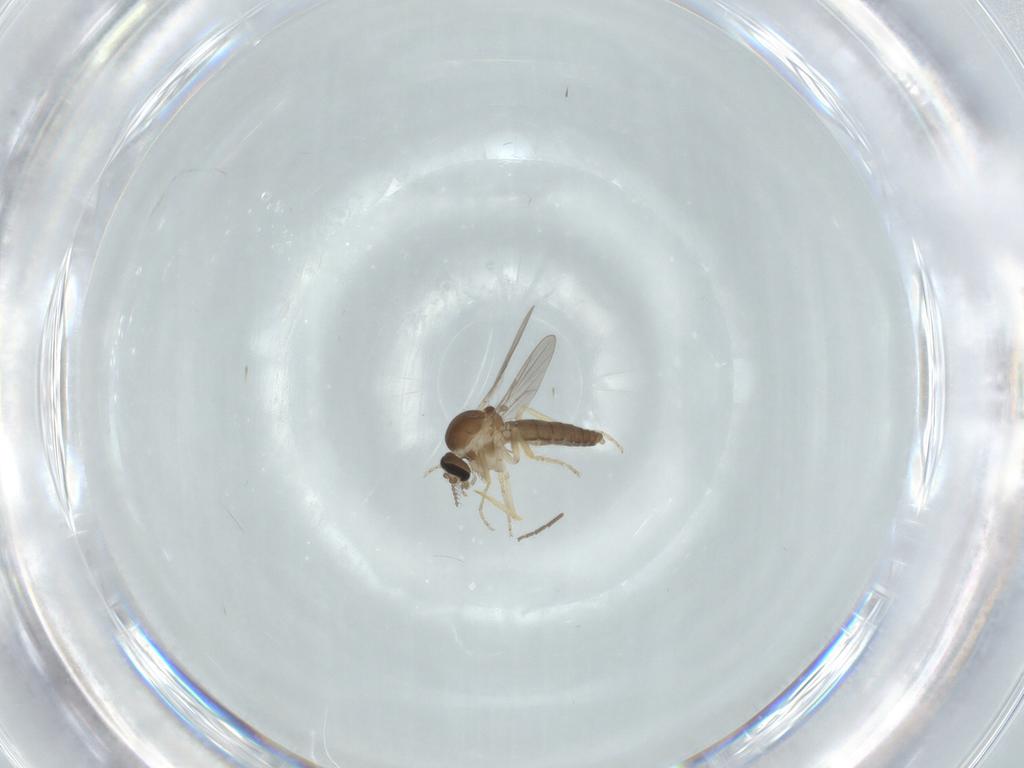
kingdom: Animalia
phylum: Arthropoda
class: Insecta
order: Diptera
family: Ceratopogonidae
